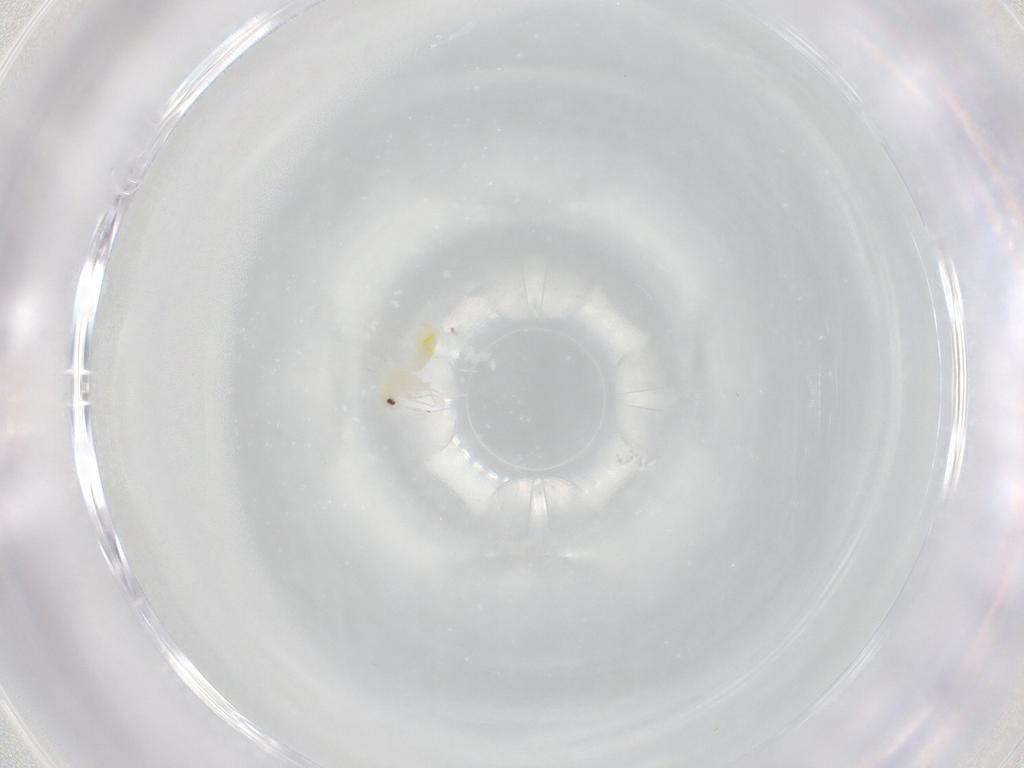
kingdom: Animalia
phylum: Arthropoda
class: Insecta
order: Hemiptera
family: Aleyrodidae
